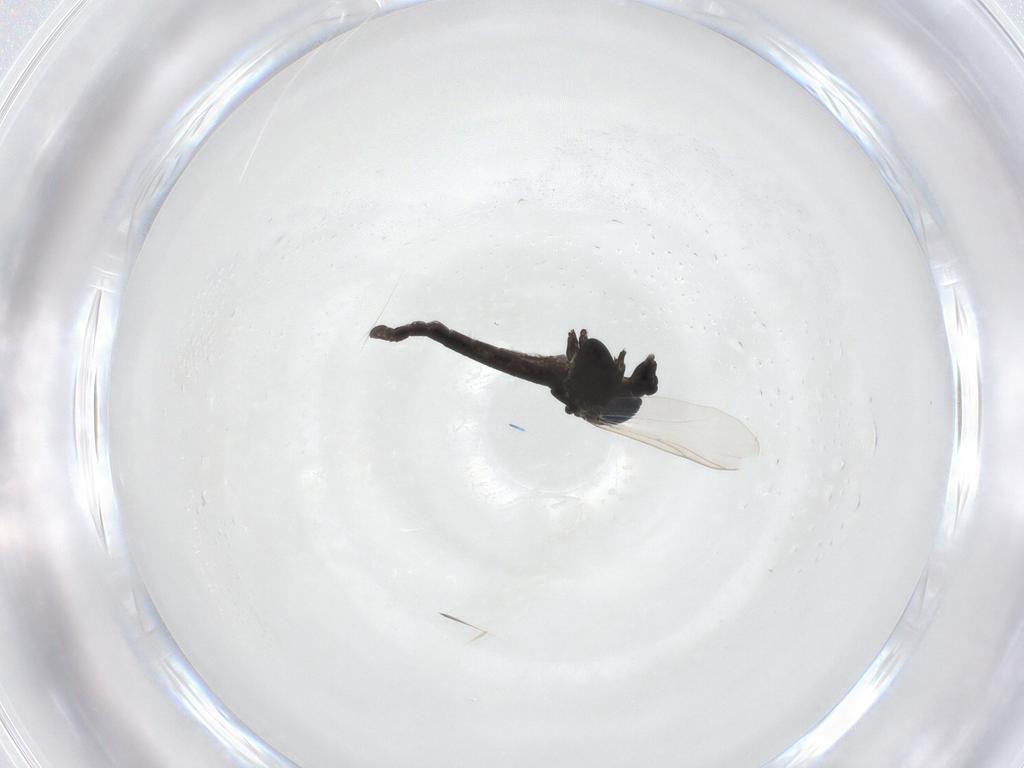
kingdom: Animalia
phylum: Arthropoda
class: Insecta
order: Diptera
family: Chironomidae
